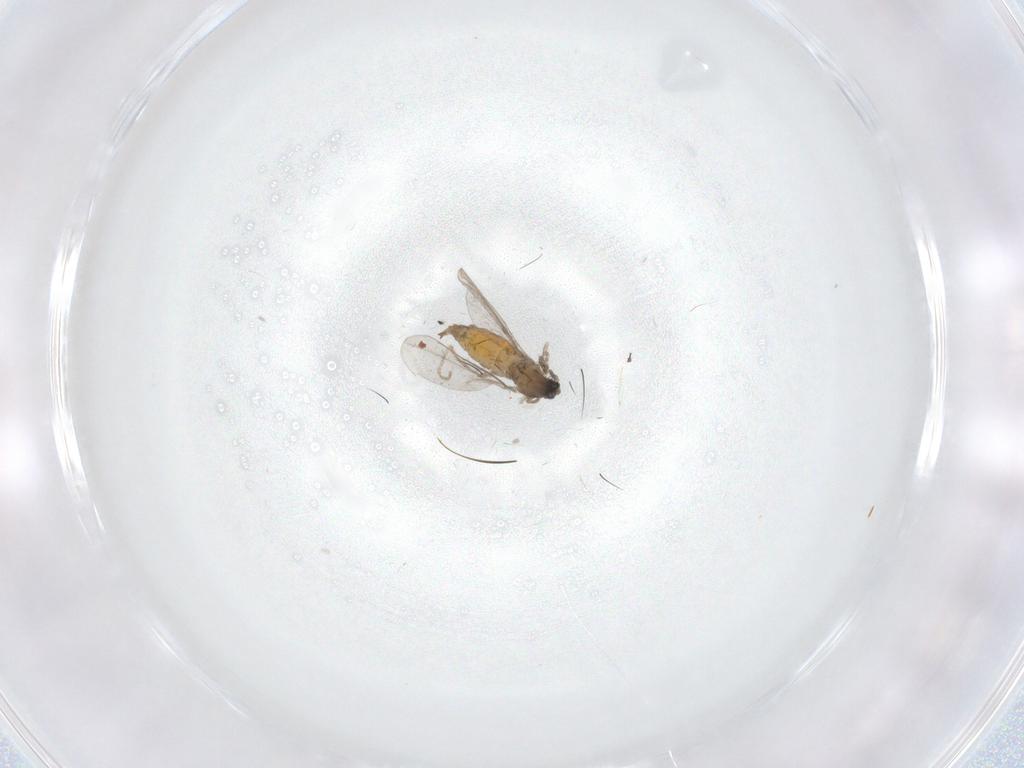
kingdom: Animalia
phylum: Arthropoda
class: Insecta
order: Diptera
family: Cecidomyiidae
